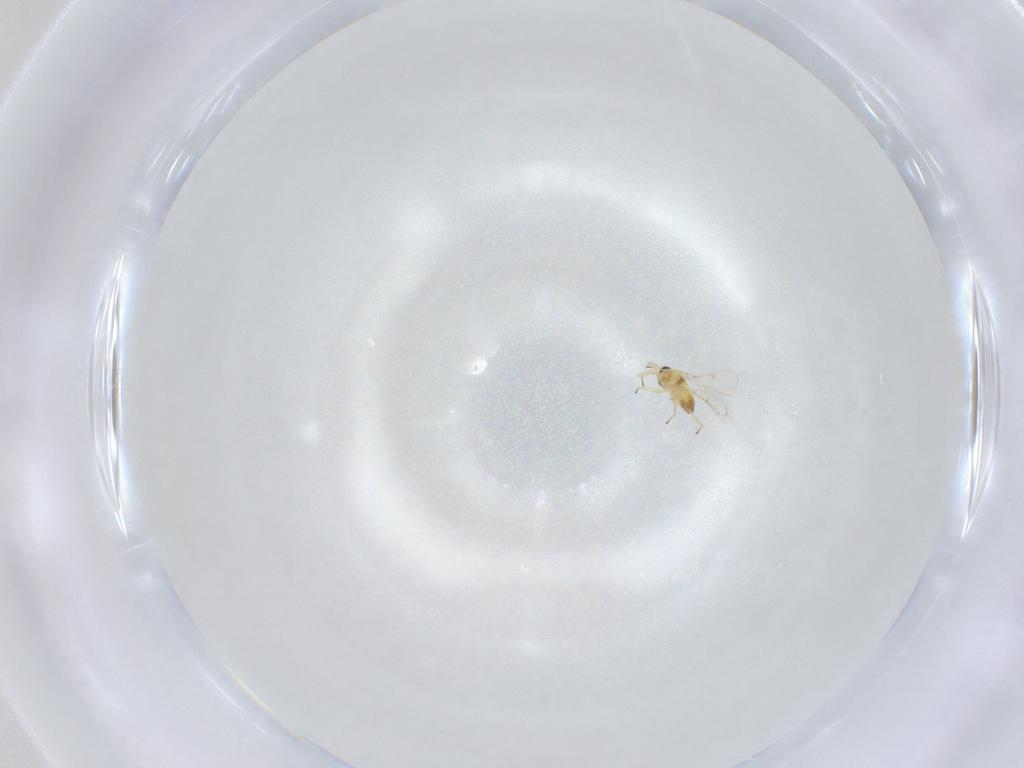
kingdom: Animalia
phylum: Arthropoda
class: Insecta
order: Hymenoptera
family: Trichogrammatidae
